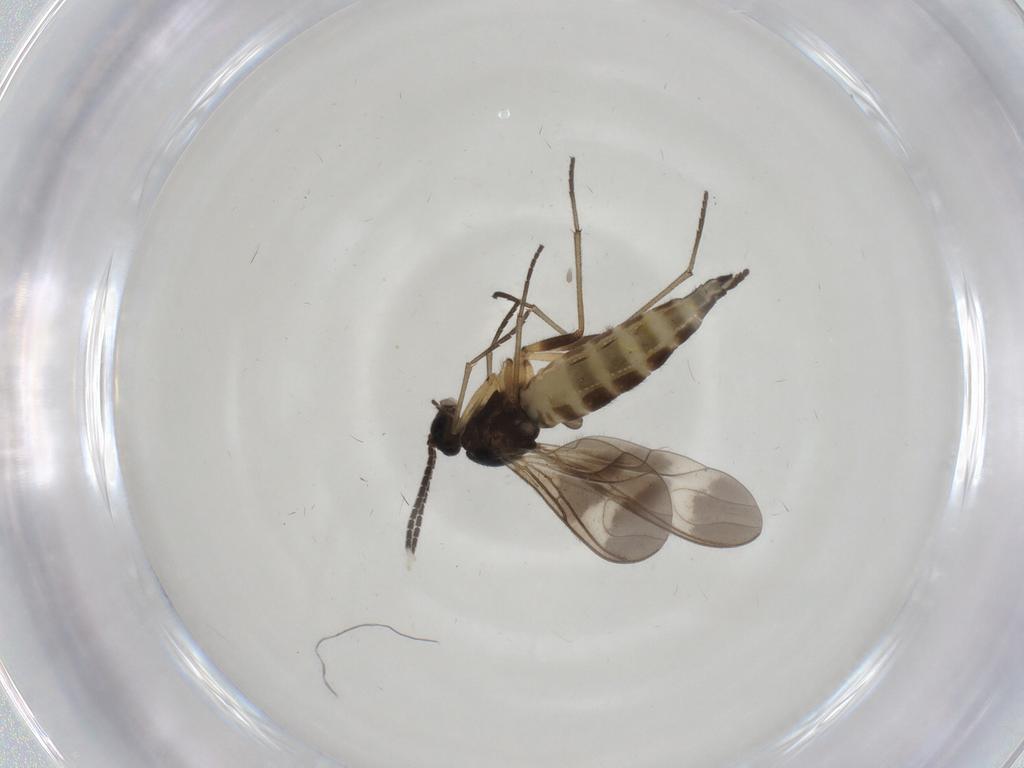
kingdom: Animalia
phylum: Arthropoda
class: Insecta
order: Diptera
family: Sciaridae
